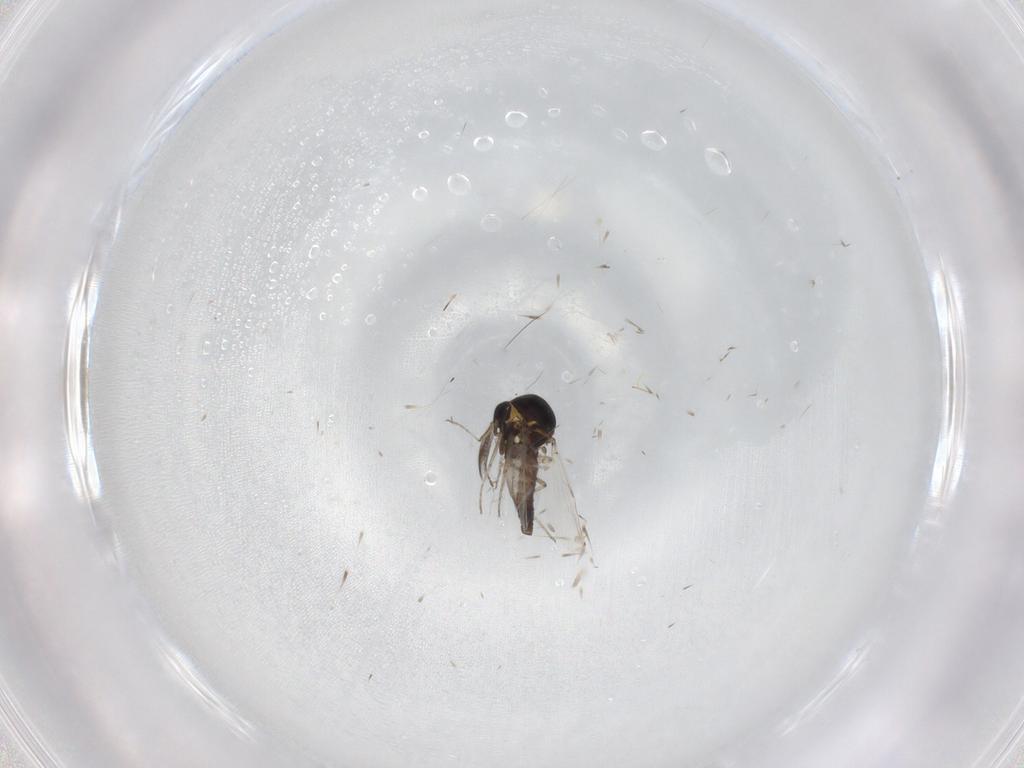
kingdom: Animalia
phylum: Arthropoda
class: Insecta
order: Diptera
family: Ceratopogonidae
